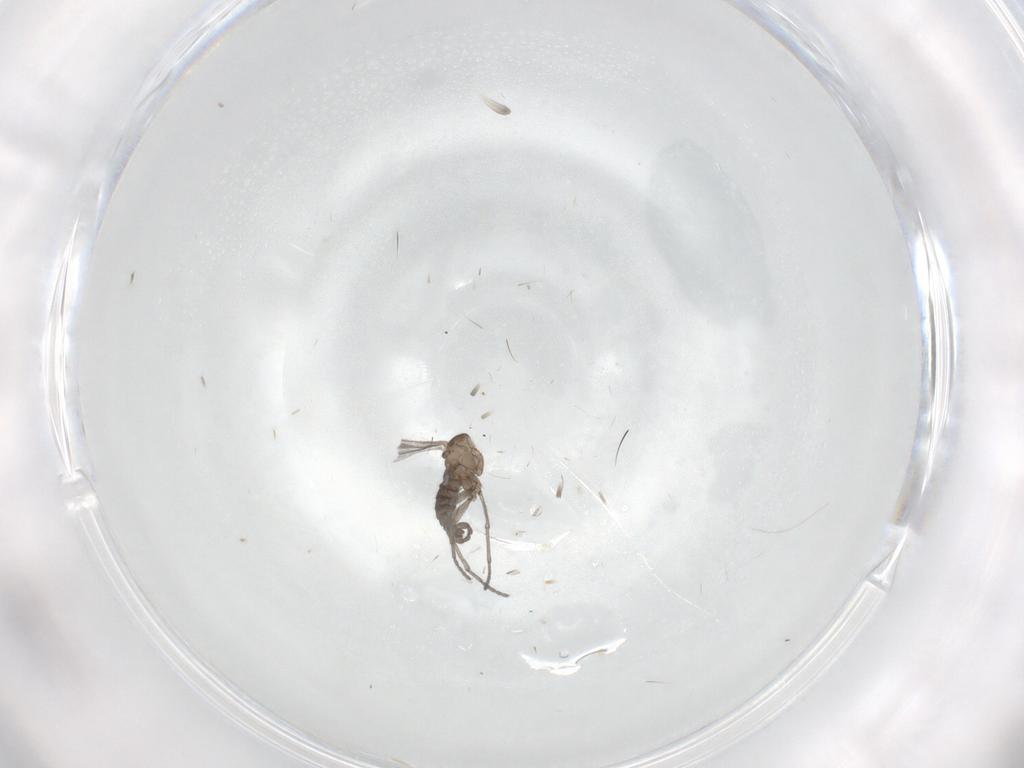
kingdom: Animalia
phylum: Arthropoda
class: Insecta
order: Diptera
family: Sciaridae
